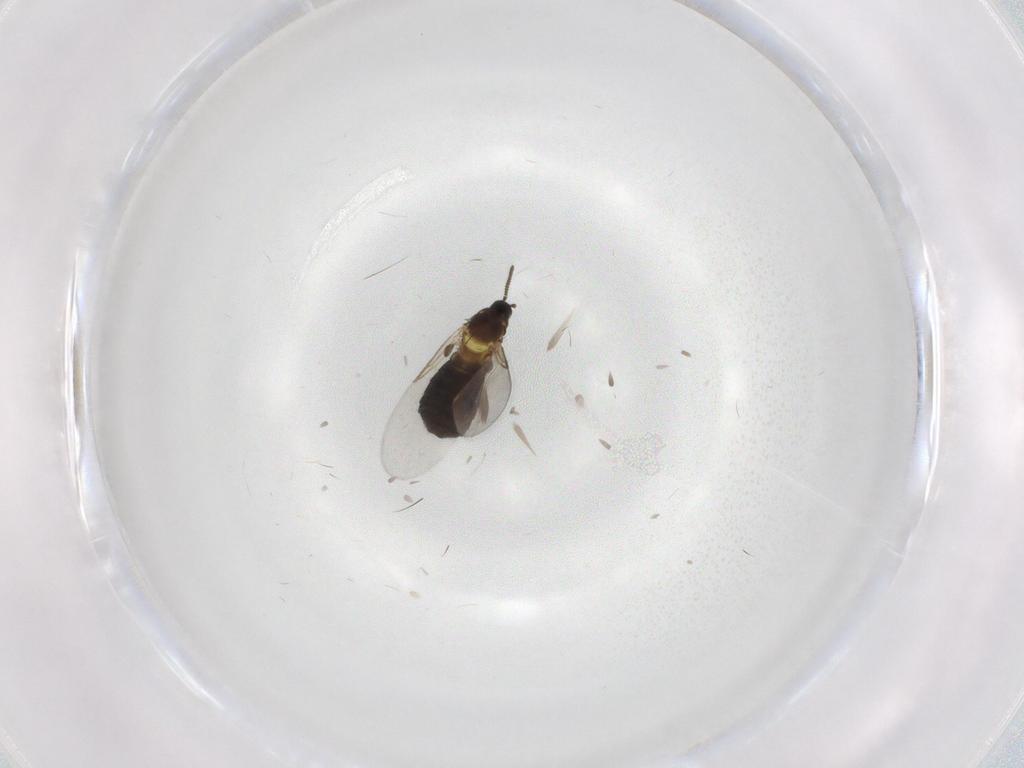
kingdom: Animalia
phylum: Arthropoda
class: Insecta
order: Diptera
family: Scatopsidae
